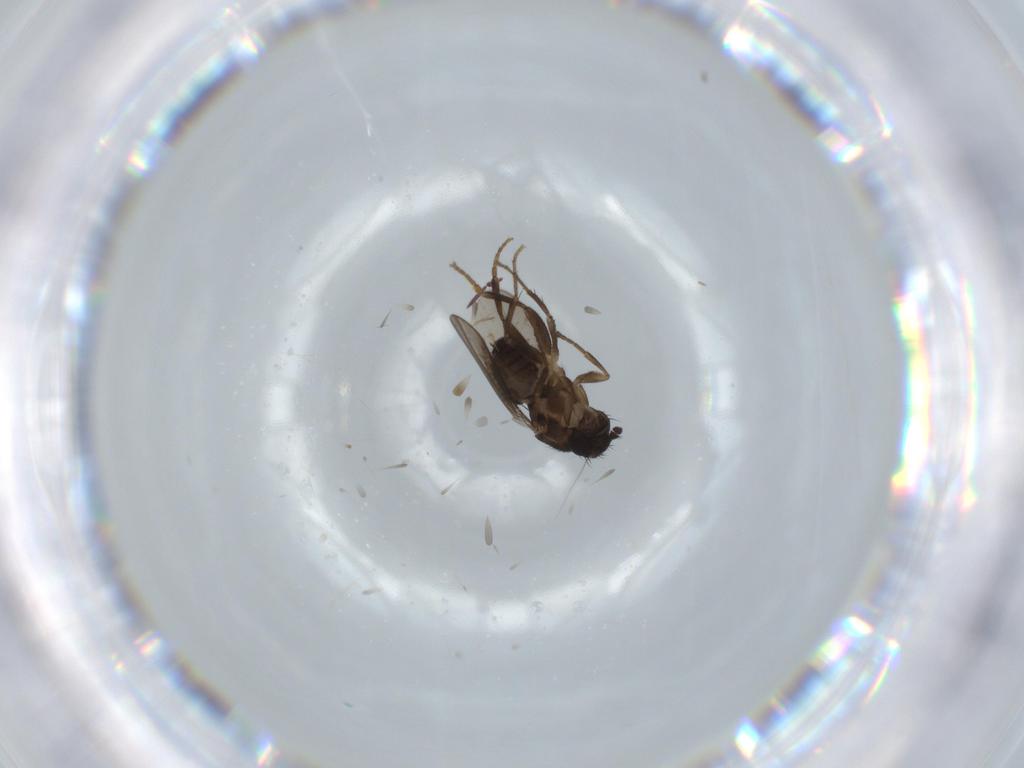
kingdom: Animalia
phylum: Arthropoda
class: Insecta
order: Diptera
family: Sphaeroceridae
